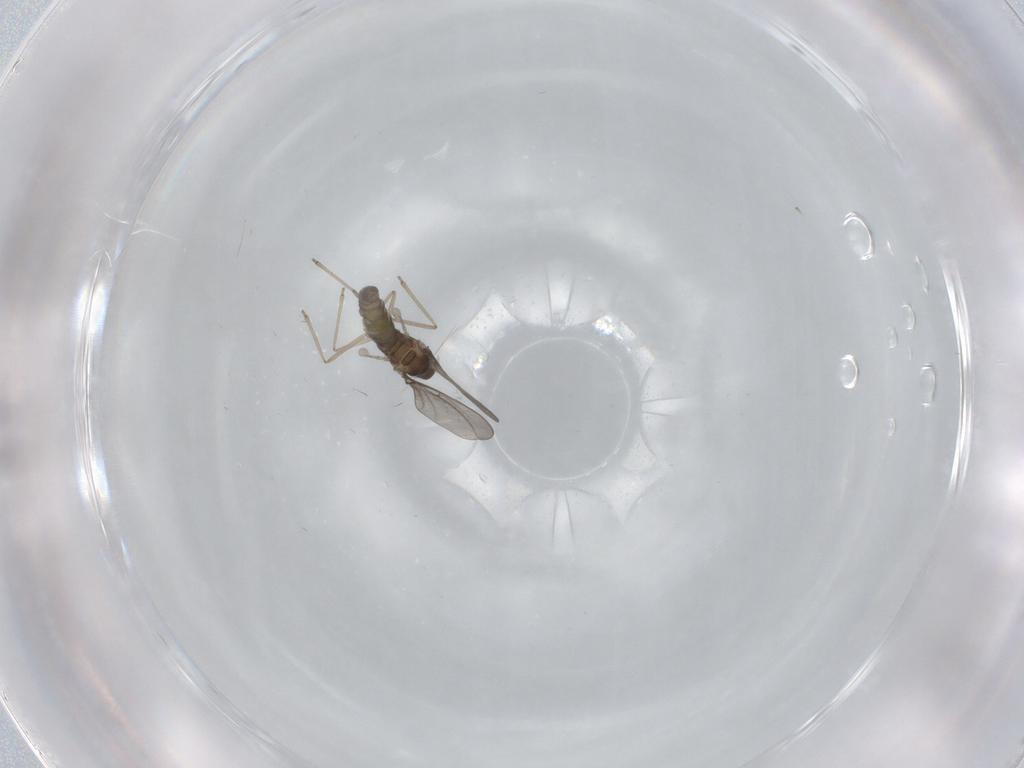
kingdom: Animalia
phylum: Arthropoda
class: Insecta
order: Diptera
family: Cecidomyiidae
